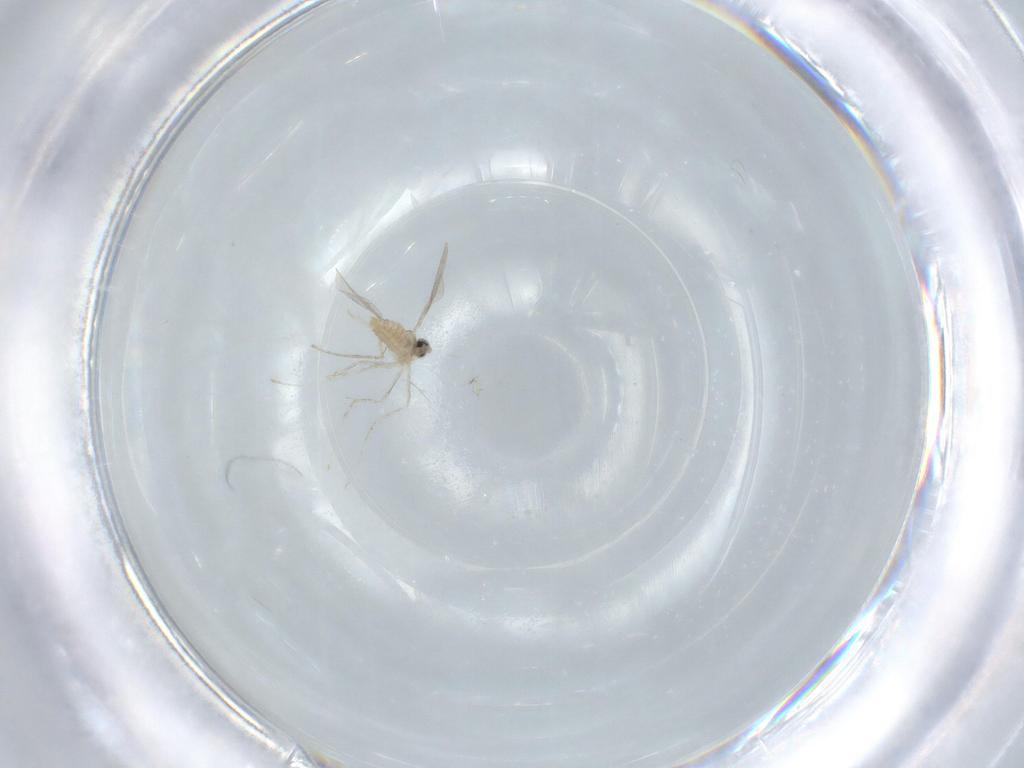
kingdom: Animalia
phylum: Arthropoda
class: Insecta
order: Diptera
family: Cecidomyiidae
